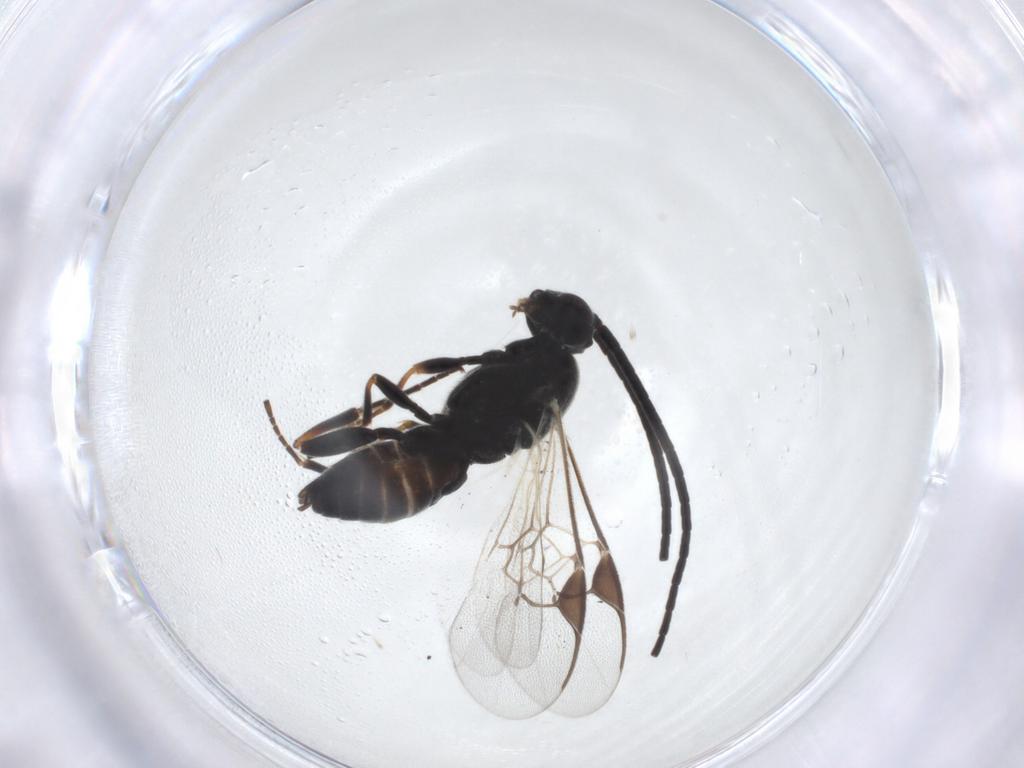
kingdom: Animalia
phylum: Arthropoda
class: Insecta
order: Hymenoptera
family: Braconidae
